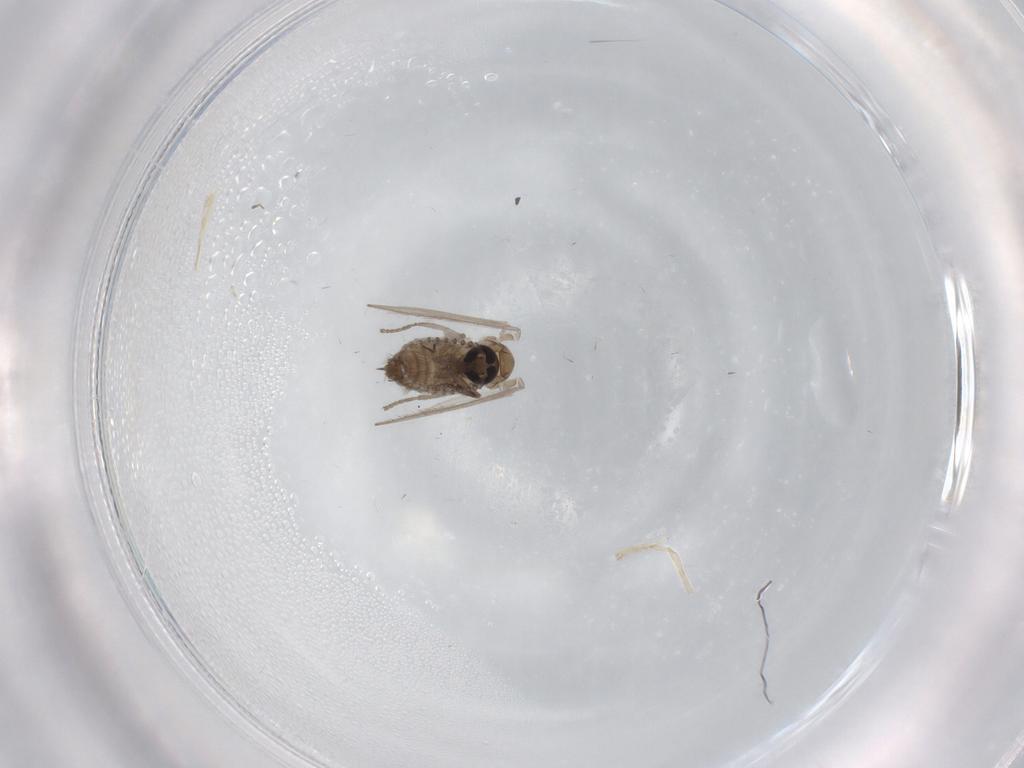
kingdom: Animalia
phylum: Arthropoda
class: Insecta
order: Diptera
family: Psychodidae
